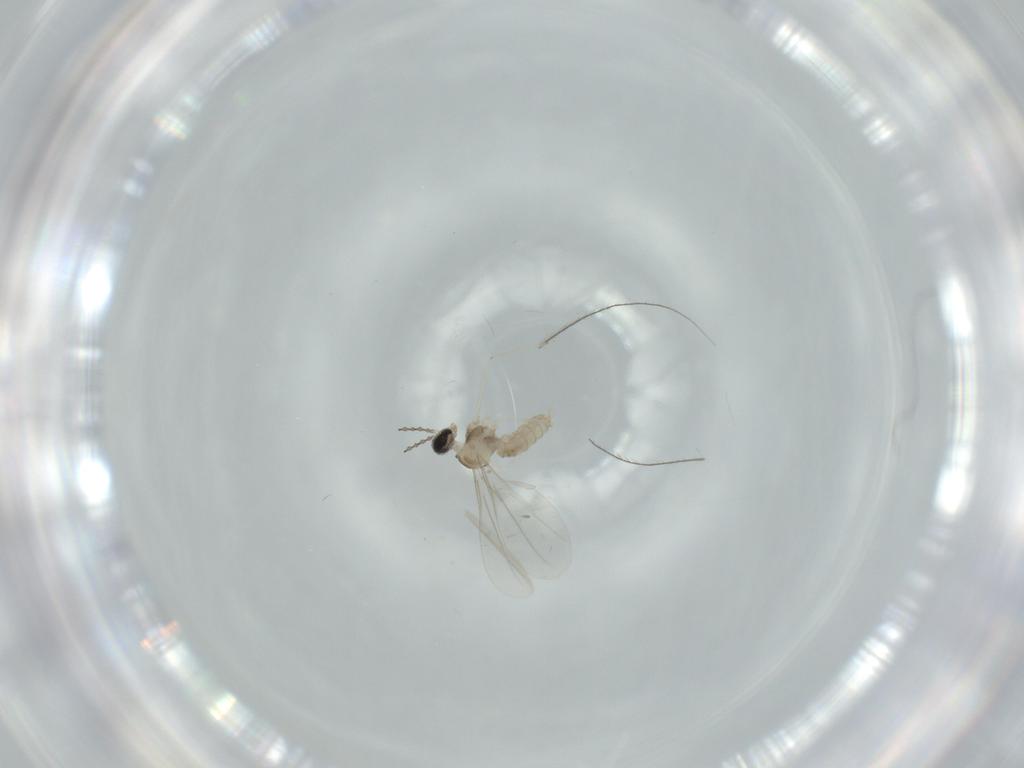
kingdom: Animalia
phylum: Arthropoda
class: Insecta
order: Diptera
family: Cecidomyiidae
